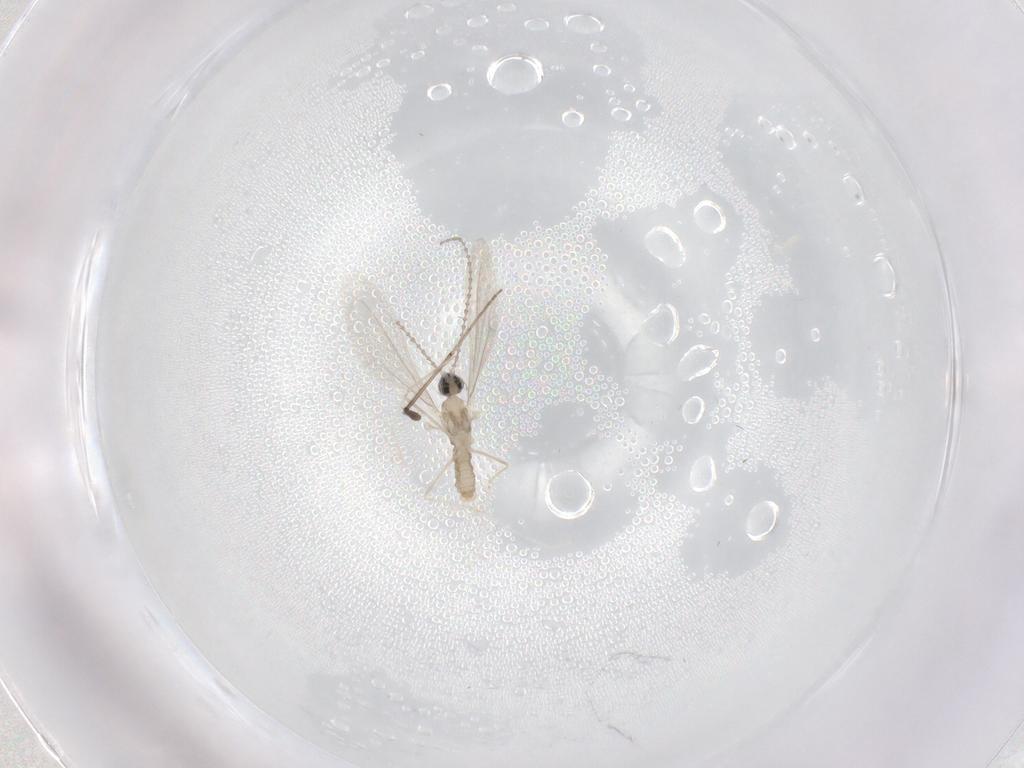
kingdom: Animalia
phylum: Arthropoda
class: Insecta
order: Diptera
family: Cecidomyiidae
